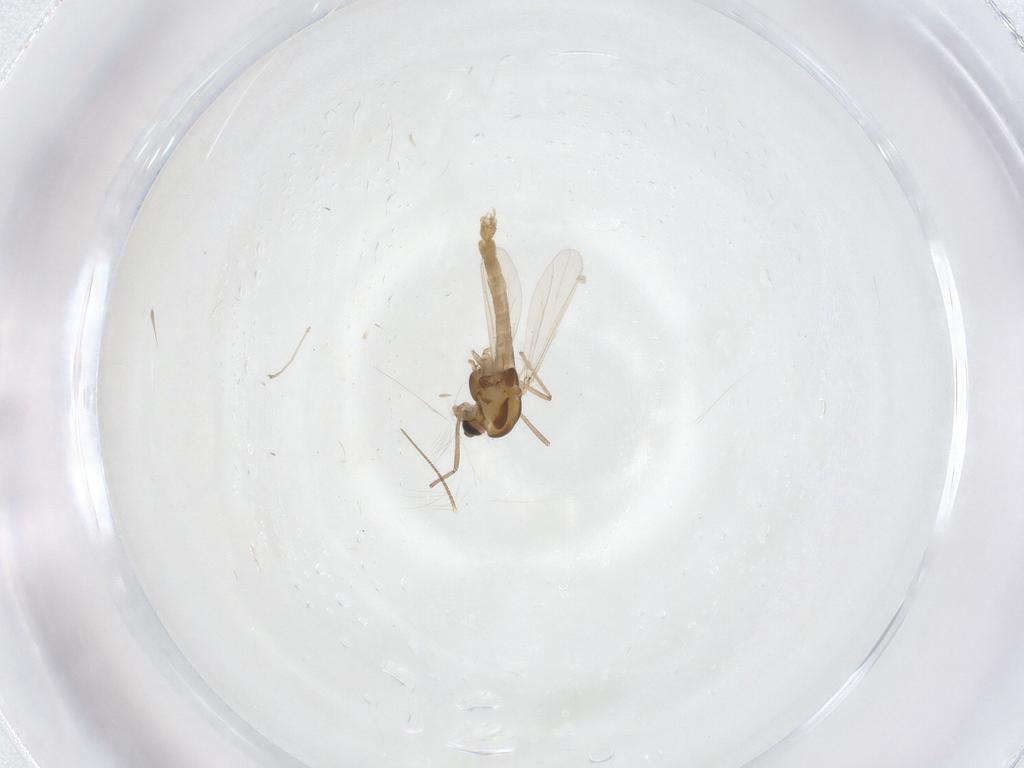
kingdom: Animalia
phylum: Arthropoda
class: Insecta
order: Diptera
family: Chironomidae
